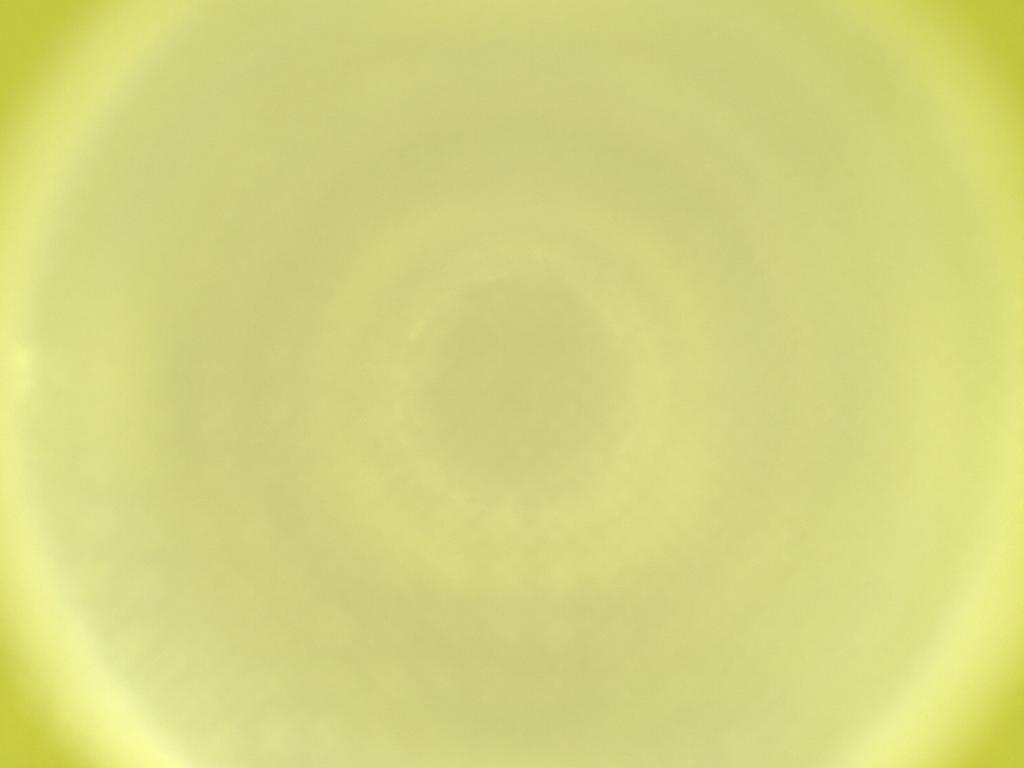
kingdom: Animalia
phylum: Arthropoda
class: Insecta
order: Diptera
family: Cecidomyiidae
